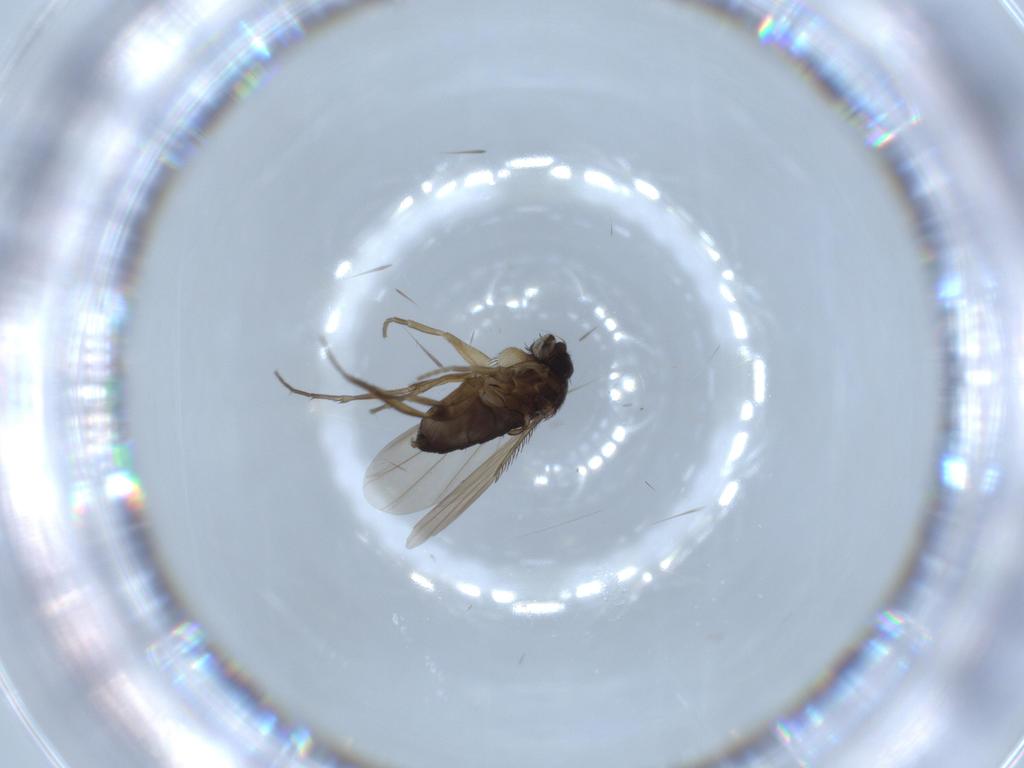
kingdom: Animalia
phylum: Arthropoda
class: Insecta
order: Diptera
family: Phoridae
